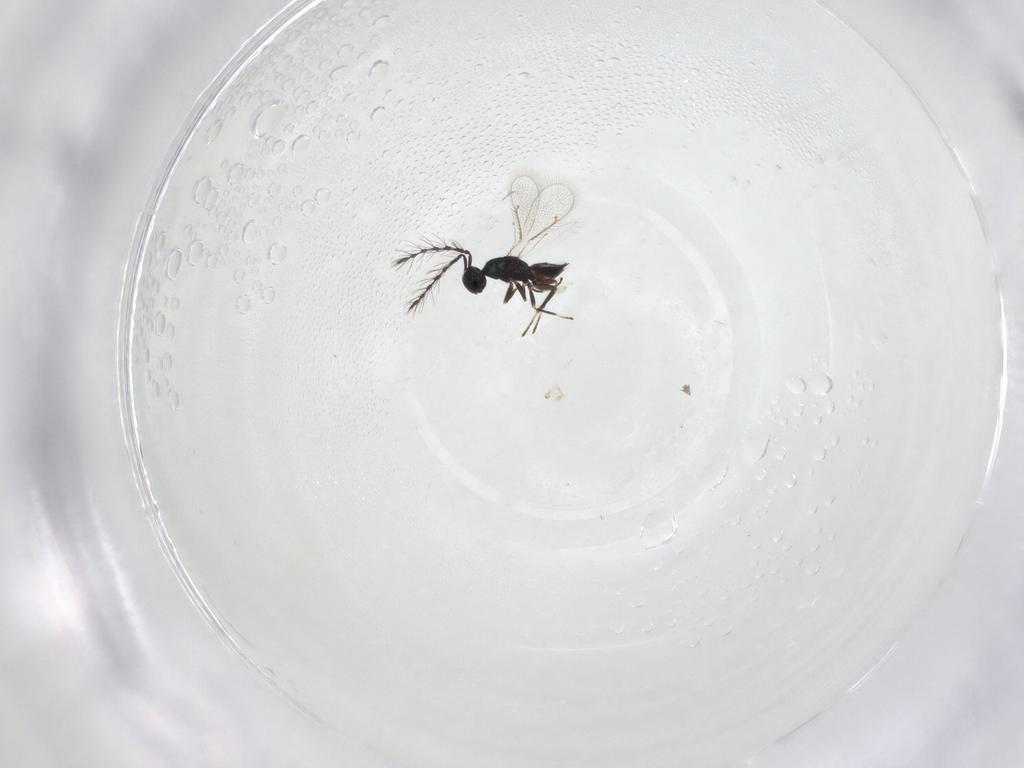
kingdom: Animalia
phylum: Arthropoda
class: Insecta
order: Hymenoptera
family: Eulophidae
